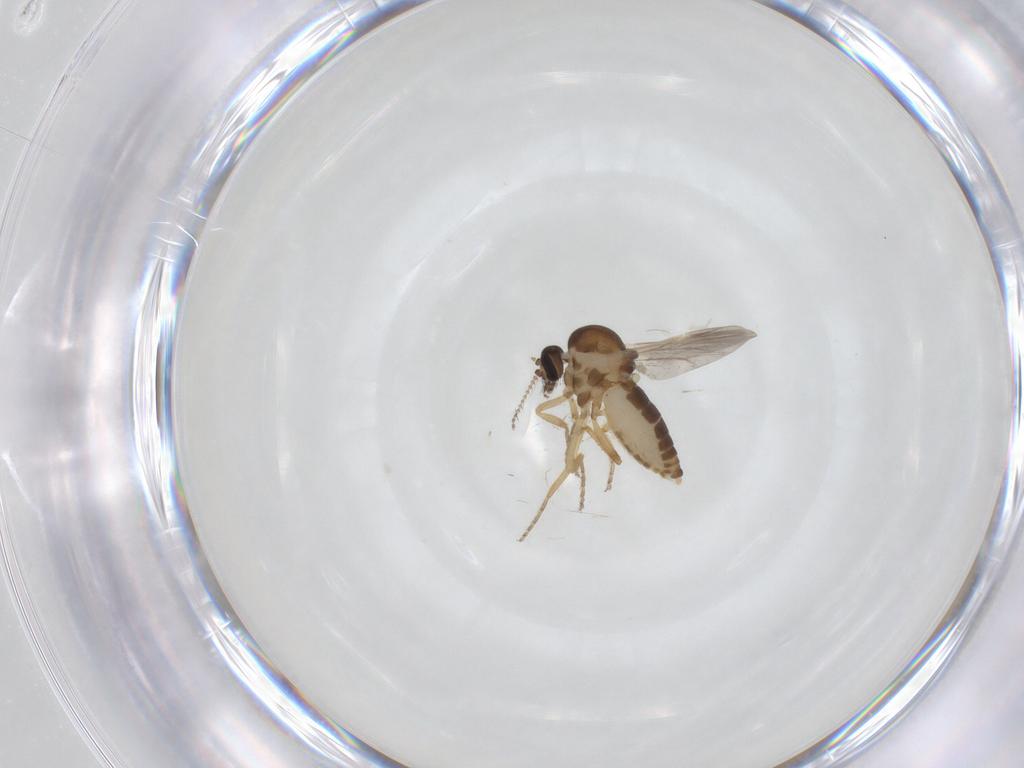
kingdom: Animalia
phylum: Arthropoda
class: Insecta
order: Diptera
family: Ceratopogonidae
